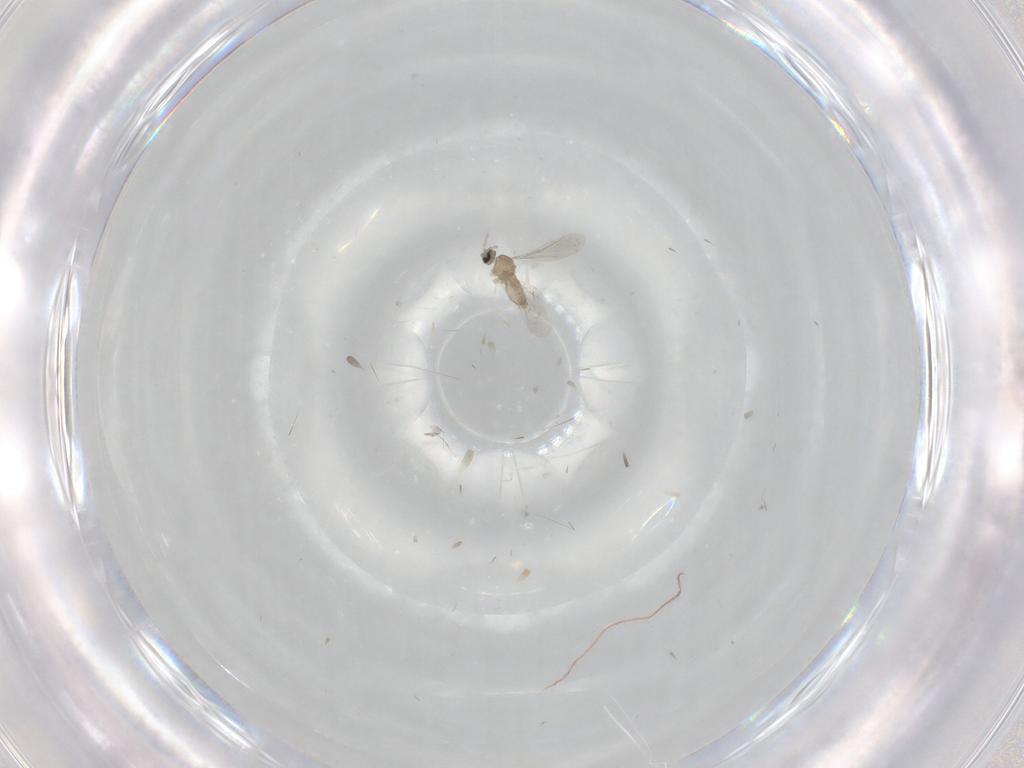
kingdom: Animalia
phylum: Arthropoda
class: Insecta
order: Diptera
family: Cecidomyiidae
